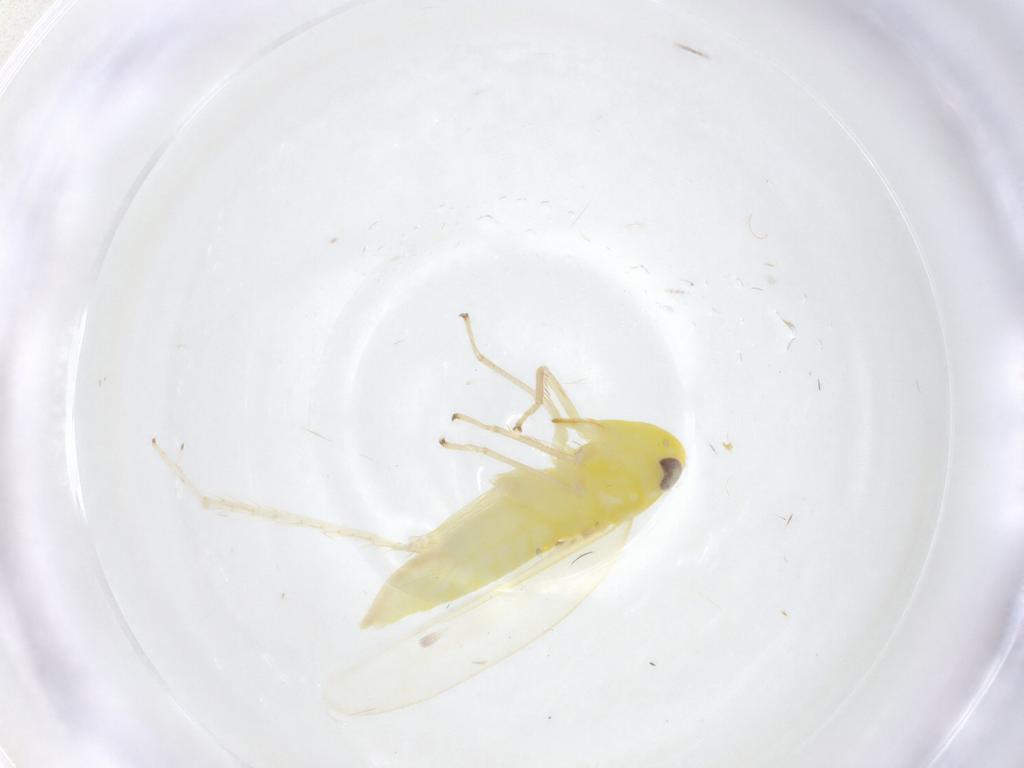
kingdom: Animalia
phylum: Arthropoda
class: Insecta
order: Hemiptera
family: Cicadellidae
